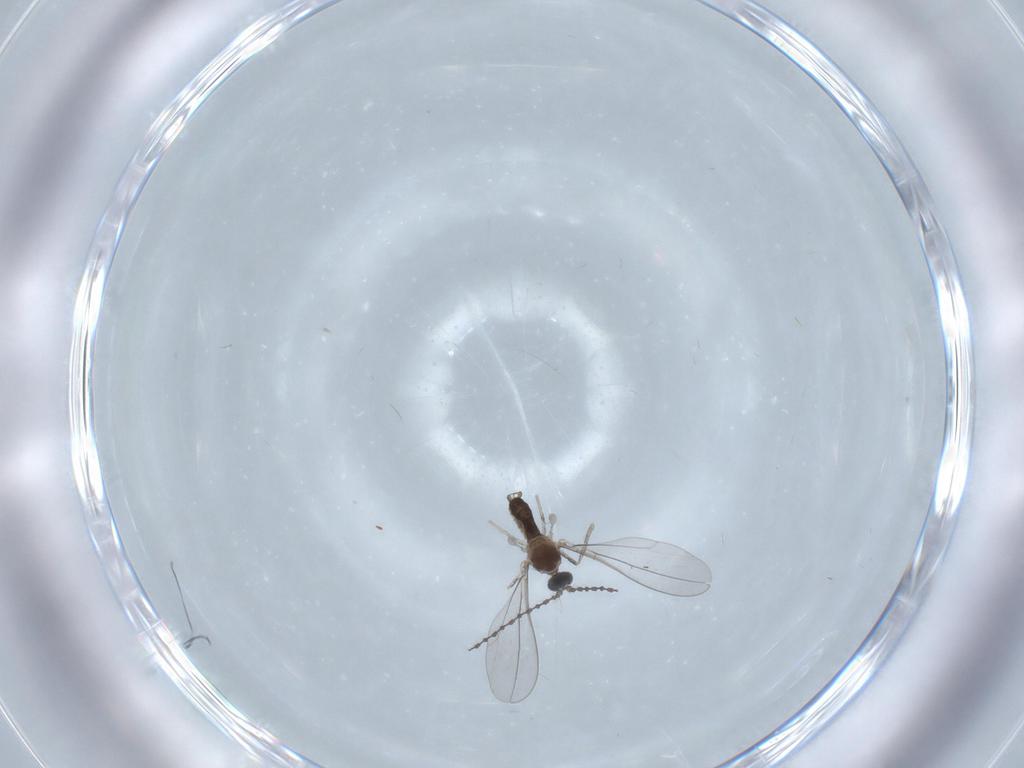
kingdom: Animalia
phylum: Arthropoda
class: Insecta
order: Diptera
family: Cecidomyiidae
